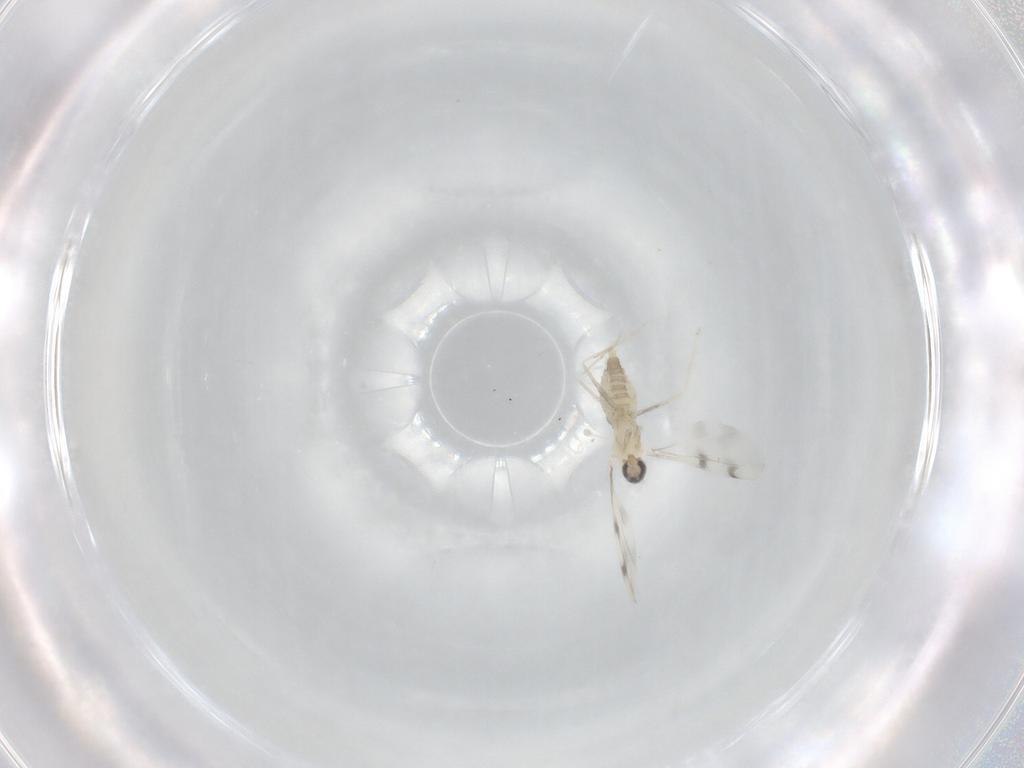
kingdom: Animalia
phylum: Arthropoda
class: Insecta
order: Diptera
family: Cecidomyiidae
